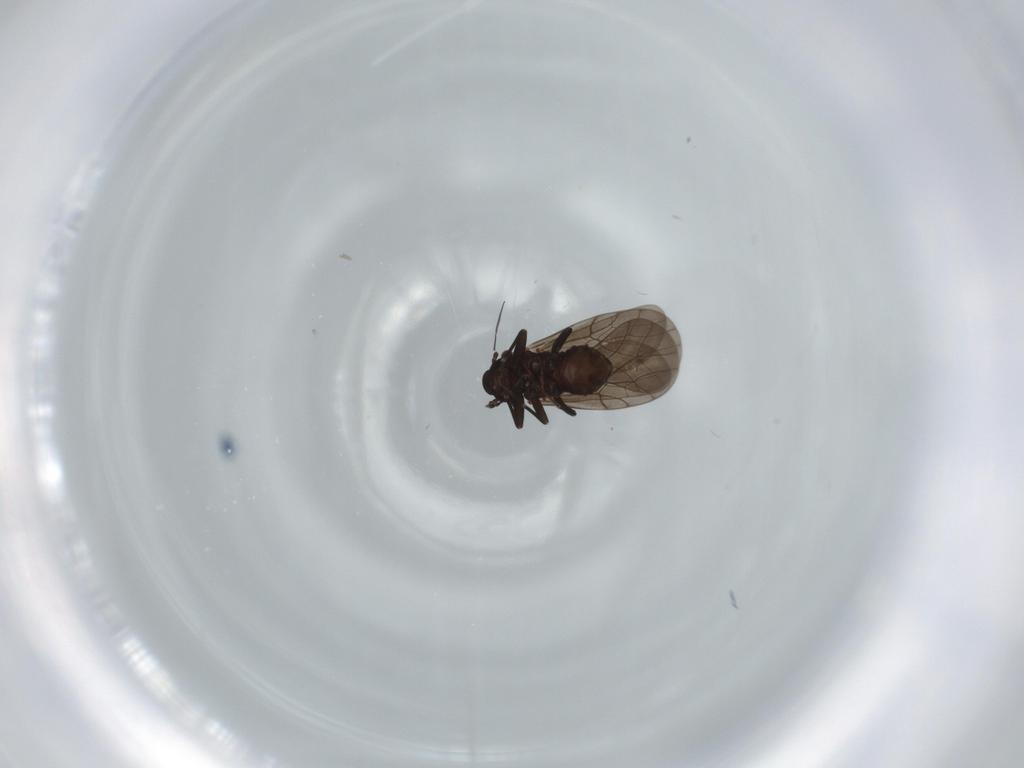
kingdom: Animalia
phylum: Arthropoda
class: Insecta
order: Psocodea
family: Lepidopsocidae
